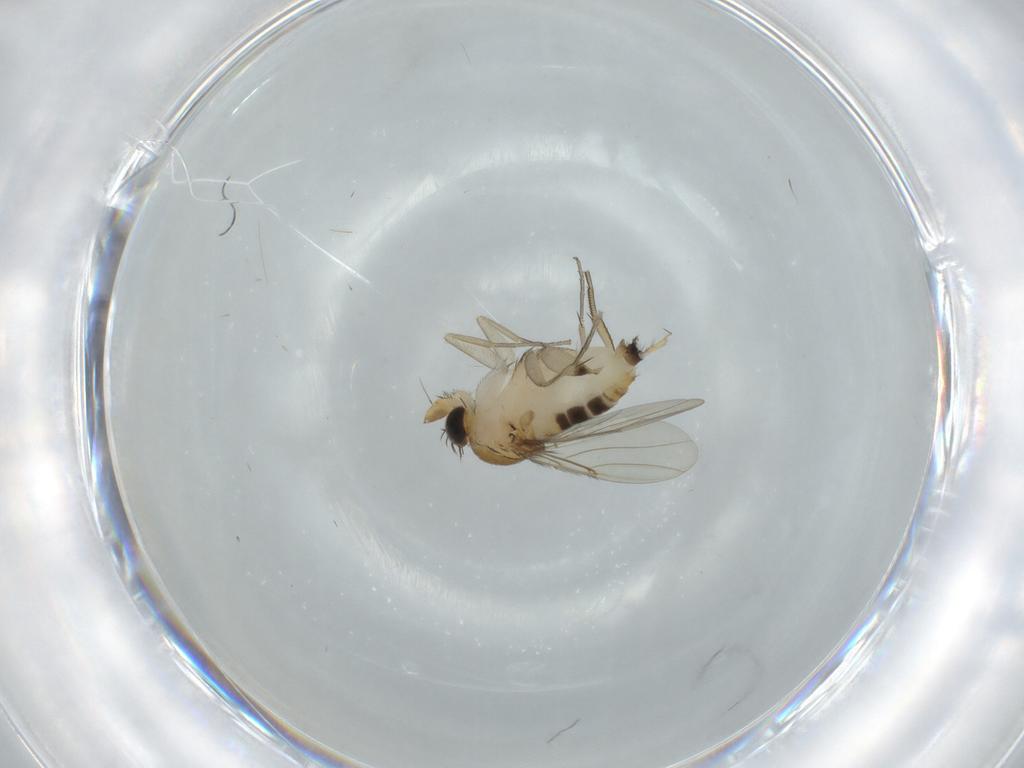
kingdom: Animalia
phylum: Arthropoda
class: Insecta
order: Diptera
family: Phoridae
